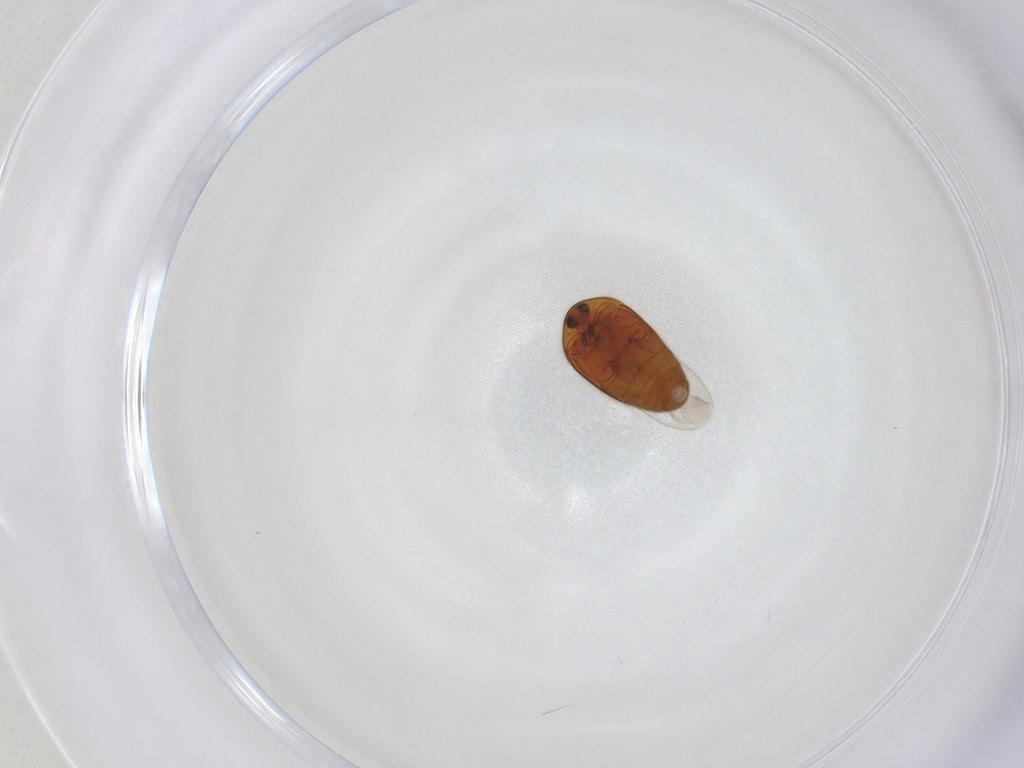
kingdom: Animalia
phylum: Arthropoda
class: Insecta
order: Coleoptera
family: Corylophidae
